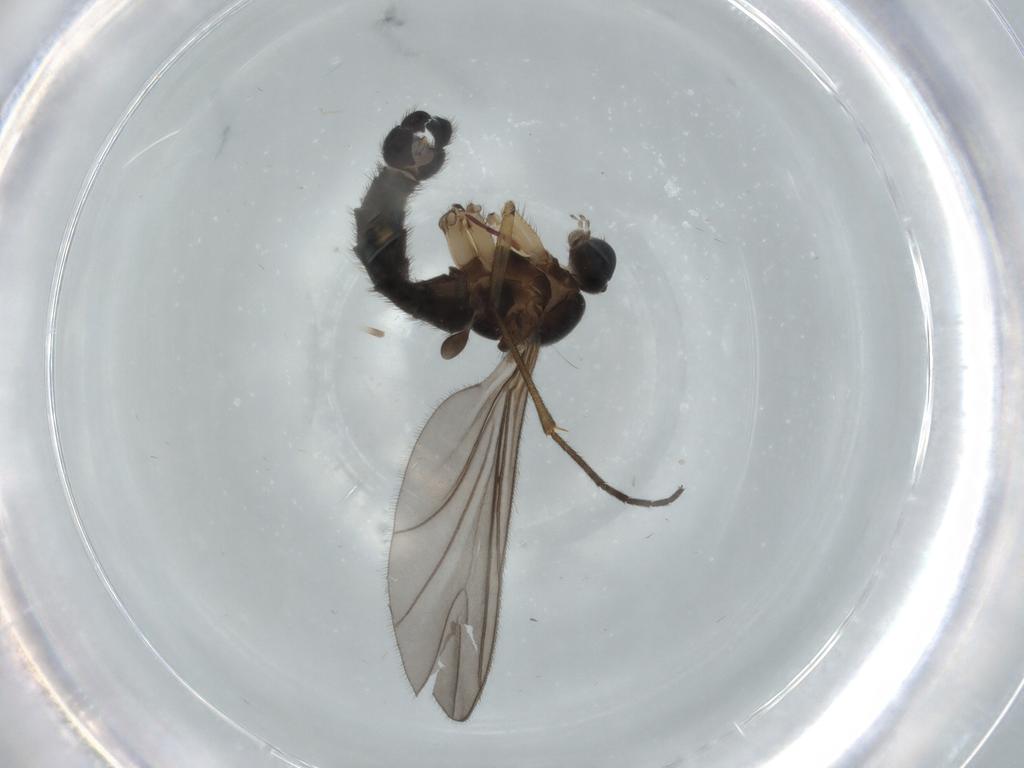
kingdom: Animalia
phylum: Arthropoda
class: Insecta
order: Diptera
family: Sciaridae
